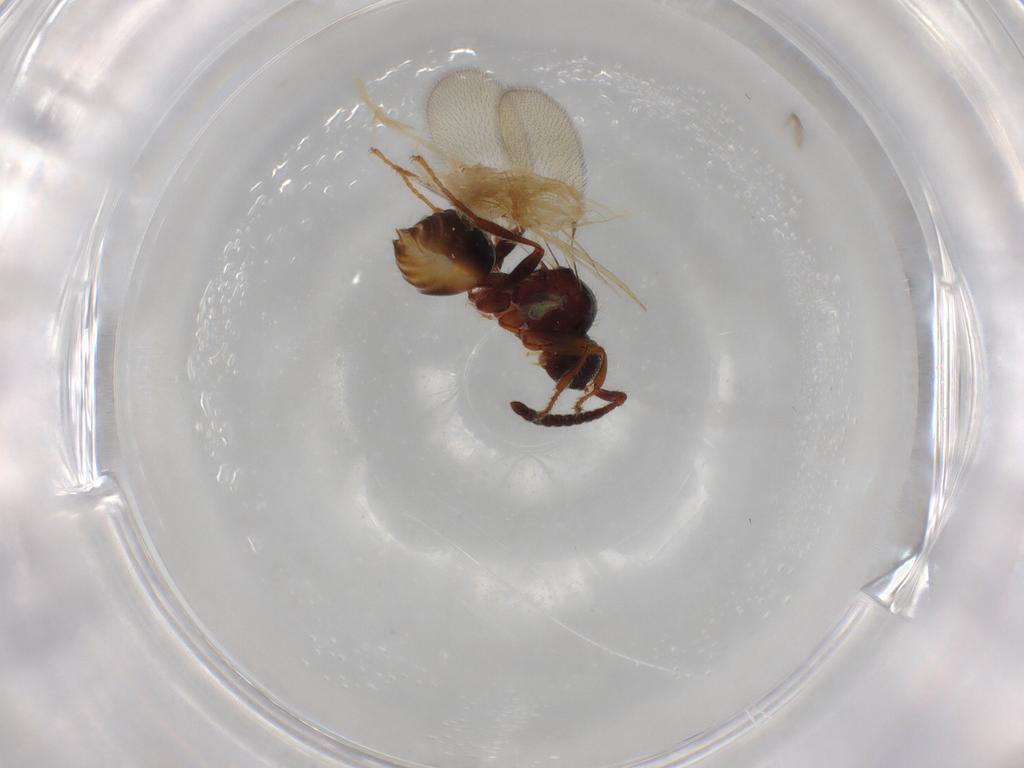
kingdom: Animalia
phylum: Arthropoda
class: Insecta
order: Hymenoptera
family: Diapriidae
